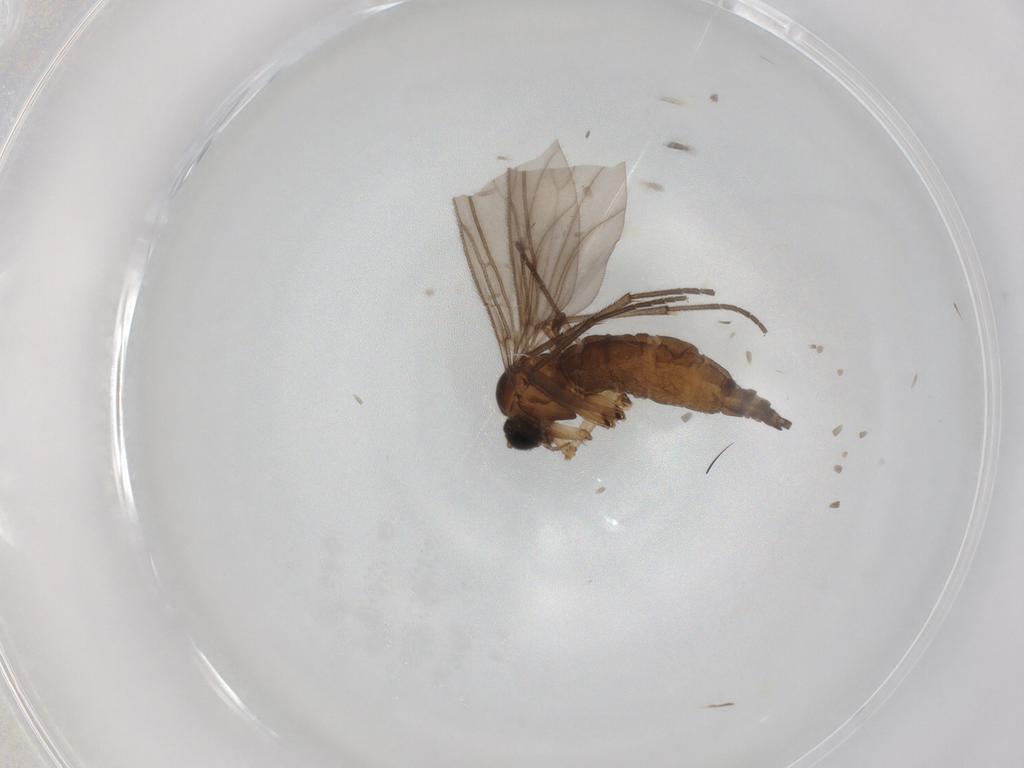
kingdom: Animalia
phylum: Arthropoda
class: Insecta
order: Diptera
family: Sciaridae
